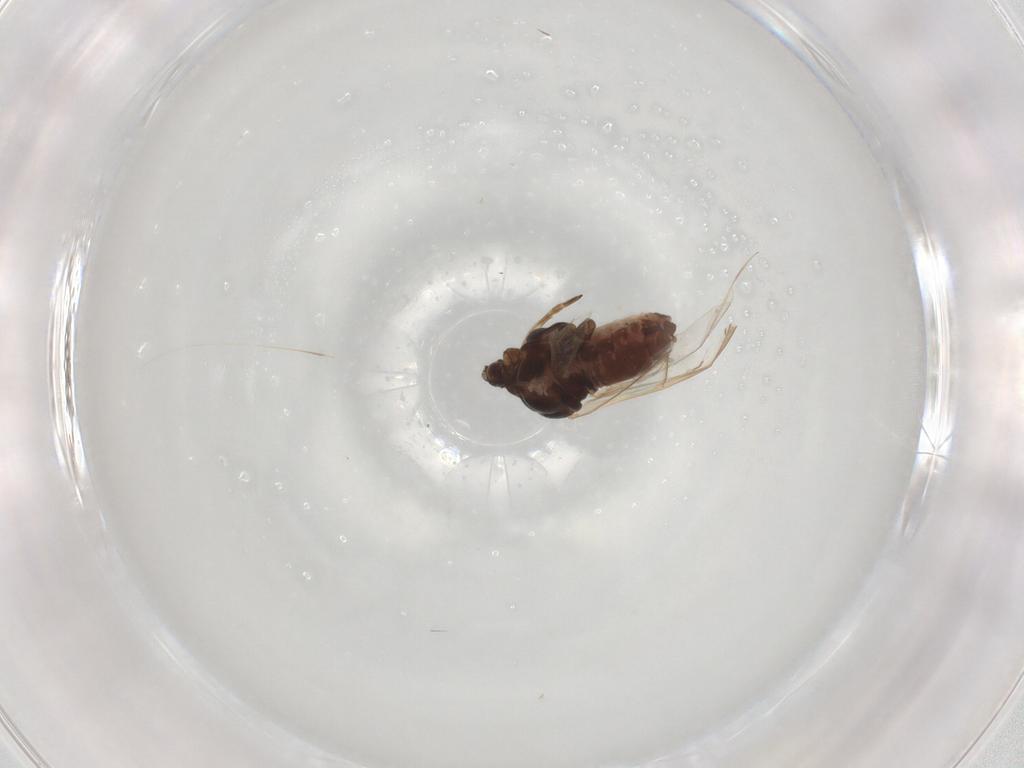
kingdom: Animalia
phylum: Arthropoda
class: Insecta
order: Hemiptera
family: Aphididae
